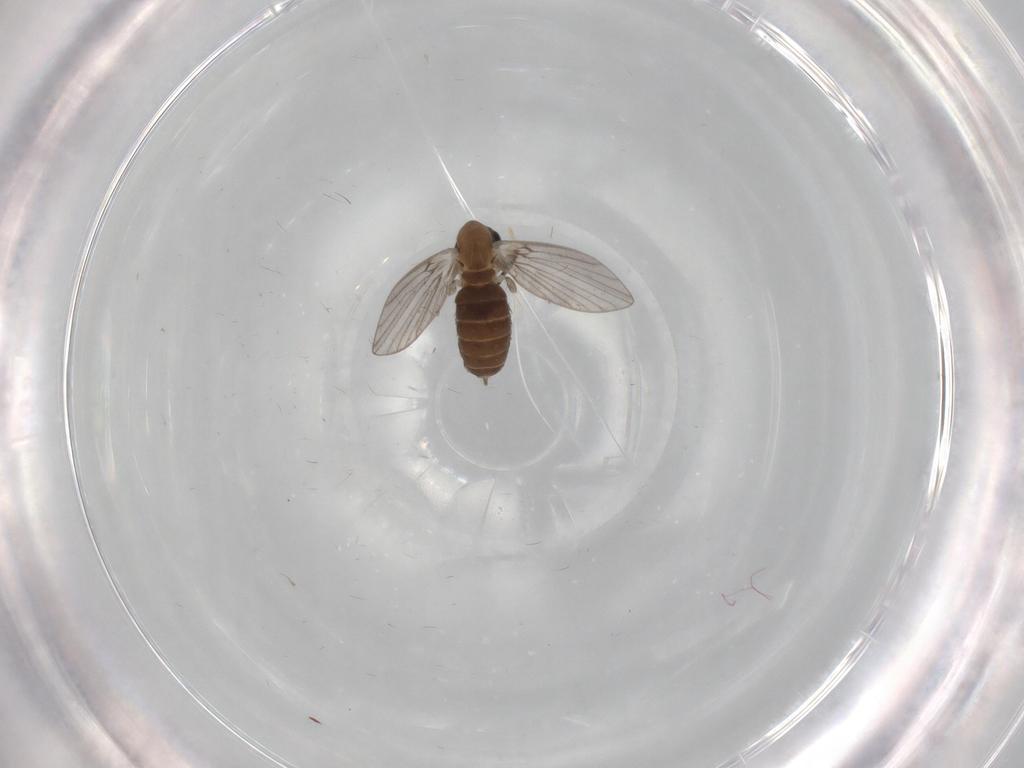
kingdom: Animalia
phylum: Arthropoda
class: Insecta
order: Diptera
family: Psychodidae
